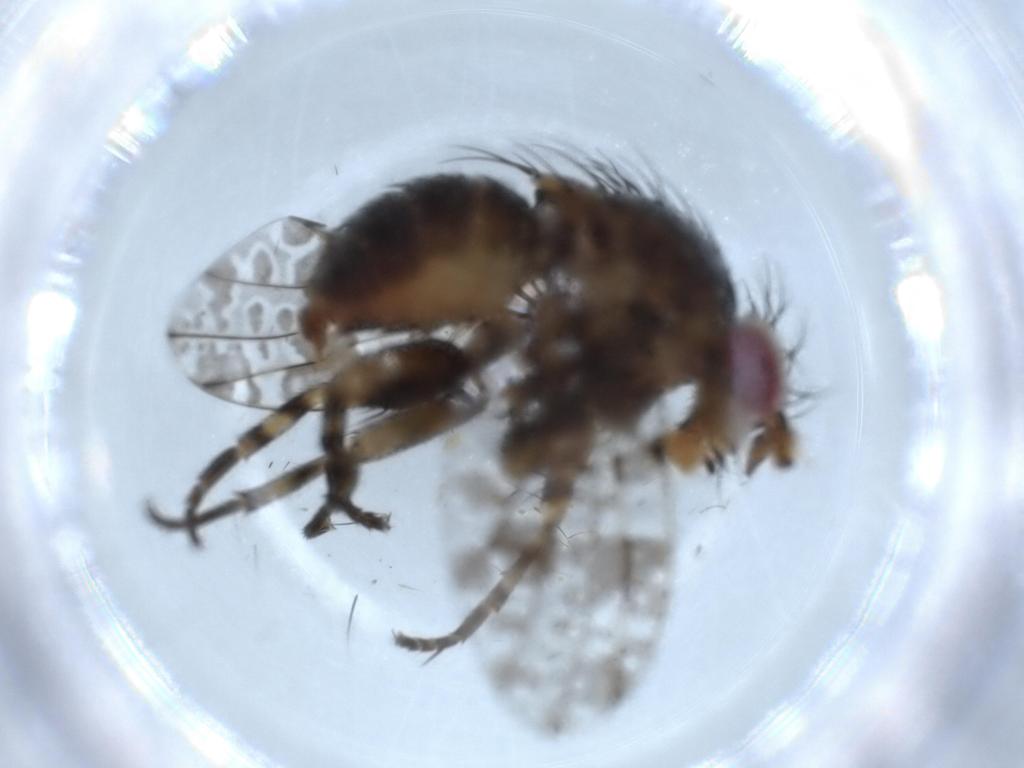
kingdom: Animalia
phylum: Arthropoda
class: Insecta
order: Diptera
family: Odiniidae
